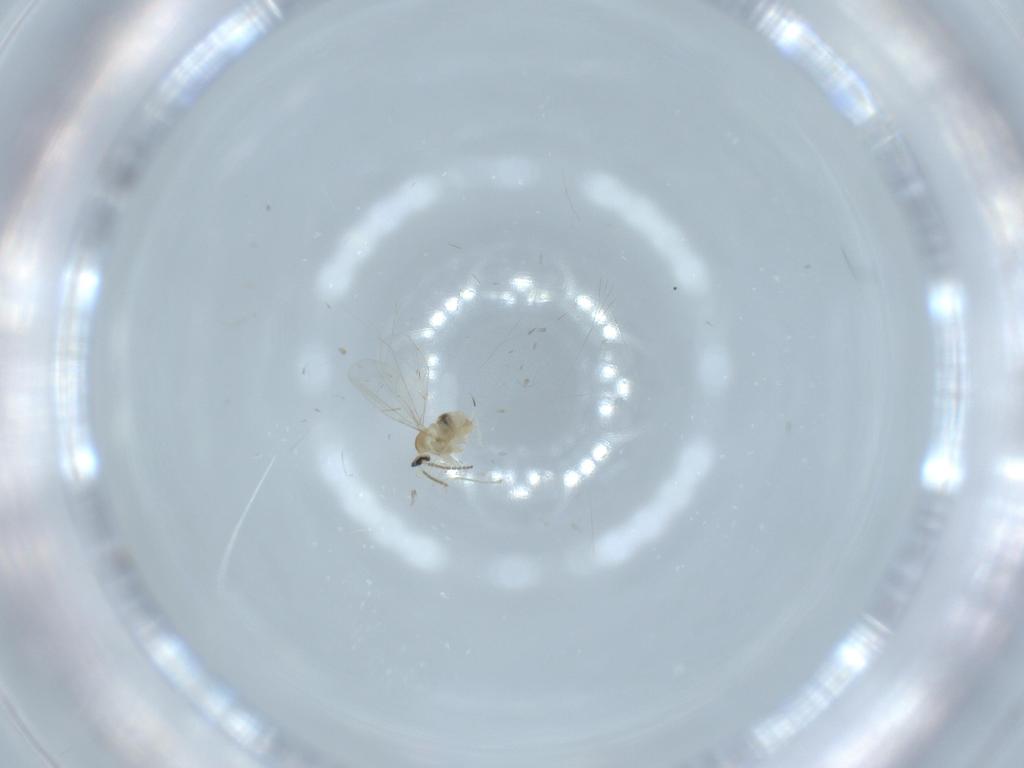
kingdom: Animalia
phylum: Arthropoda
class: Insecta
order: Diptera
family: Cecidomyiidae
